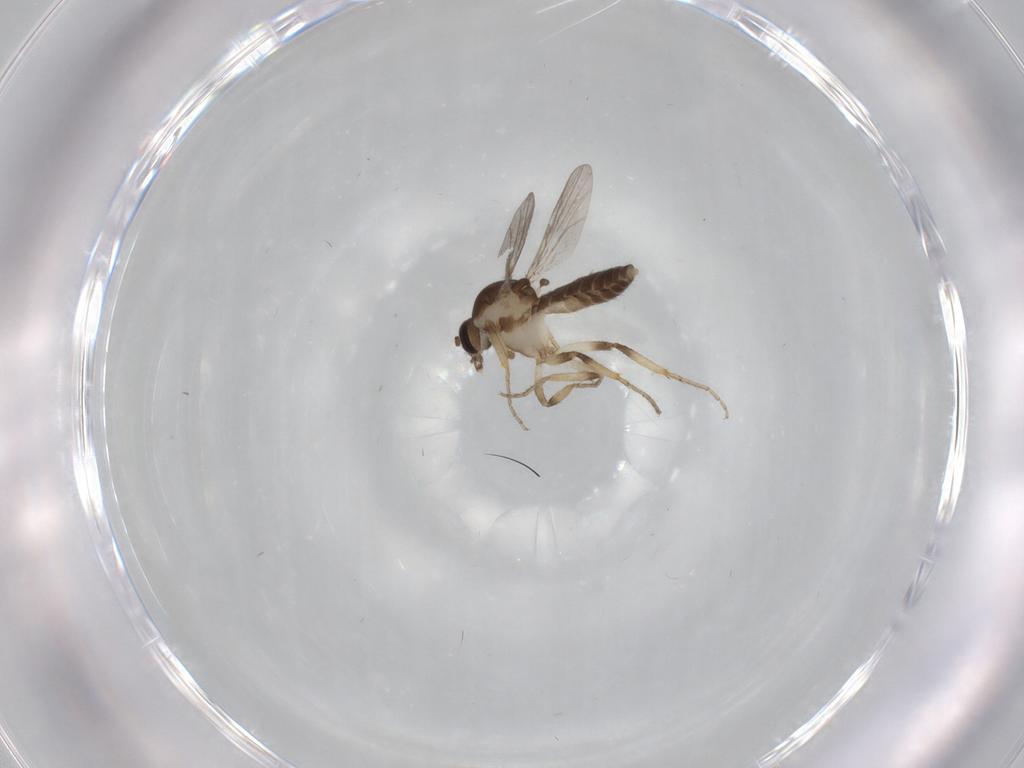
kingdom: Animalia
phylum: Arthropoda
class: Insecta
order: Diptera
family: Ceratopogonidae
